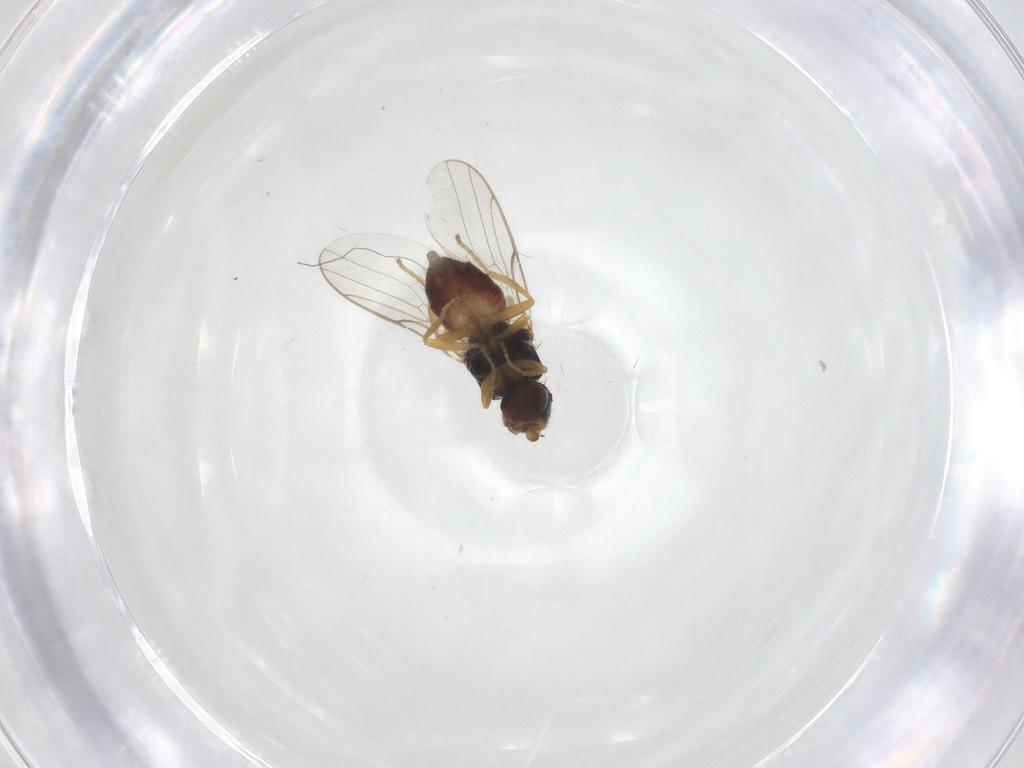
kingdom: Animalia
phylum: Arthropoda
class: Insecta
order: Diptera
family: Chloropidae
